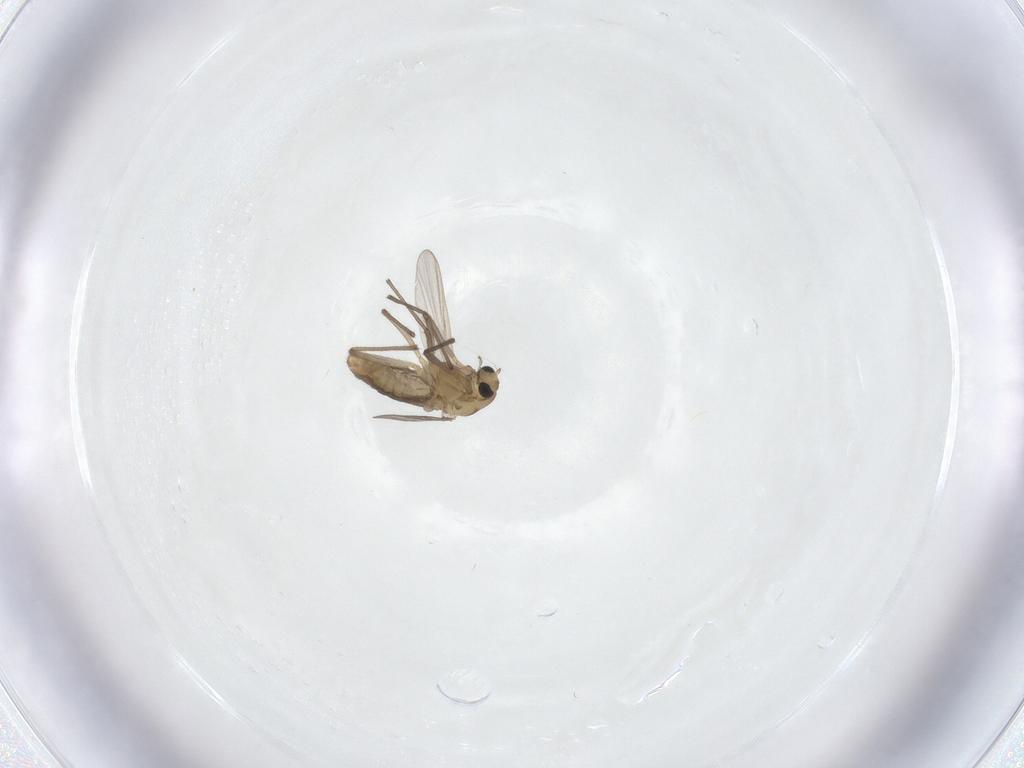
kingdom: Animalia
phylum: Arthropoda
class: Insecta
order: Diptera
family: Chironomidae
